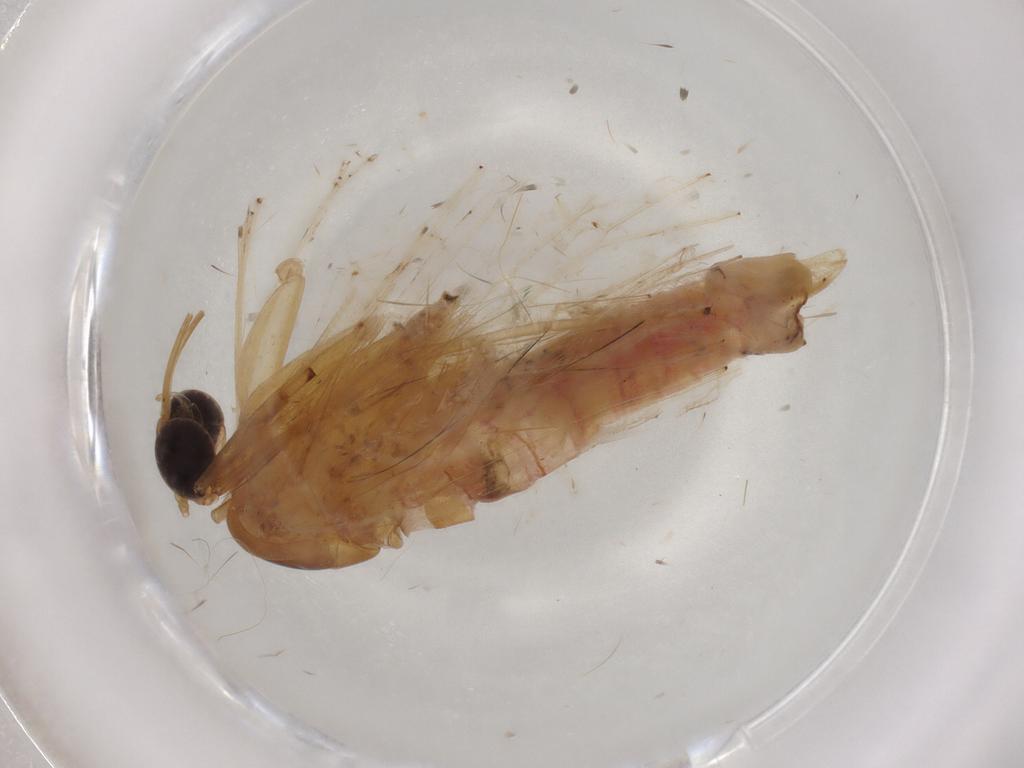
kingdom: Animalia
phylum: Arthropoda
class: Insecta
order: Lepidoptera
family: Geometridae
